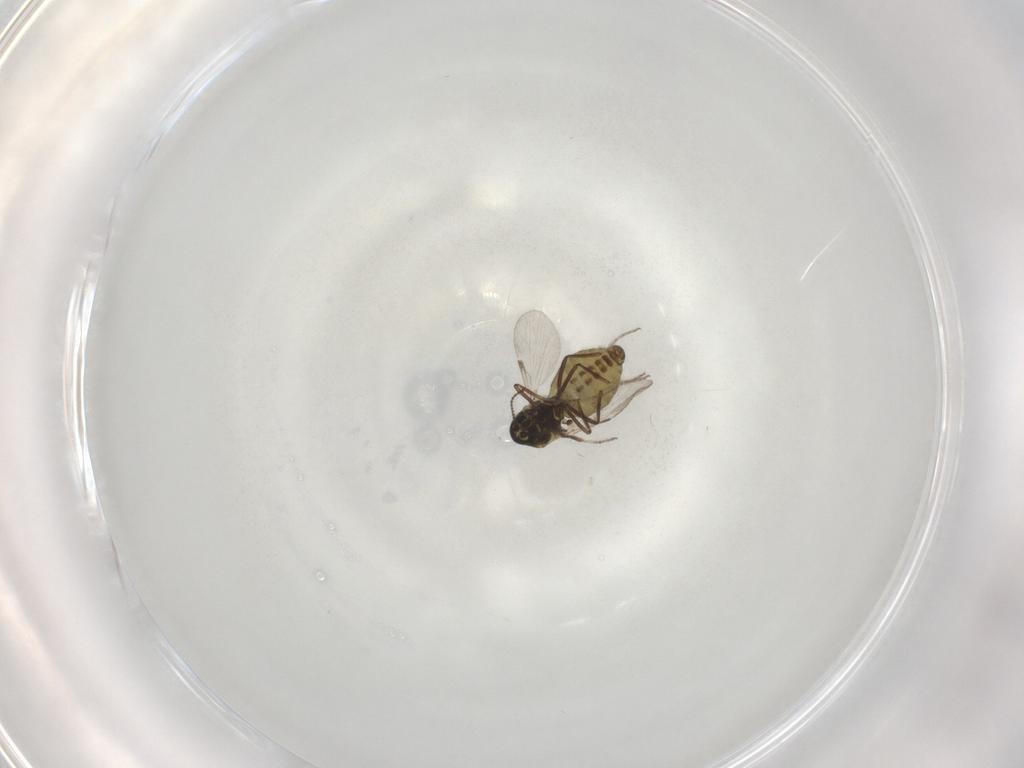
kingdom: Animalia
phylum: Arthropoda
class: Insecta
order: Diptera
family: Ceratopogonidae
